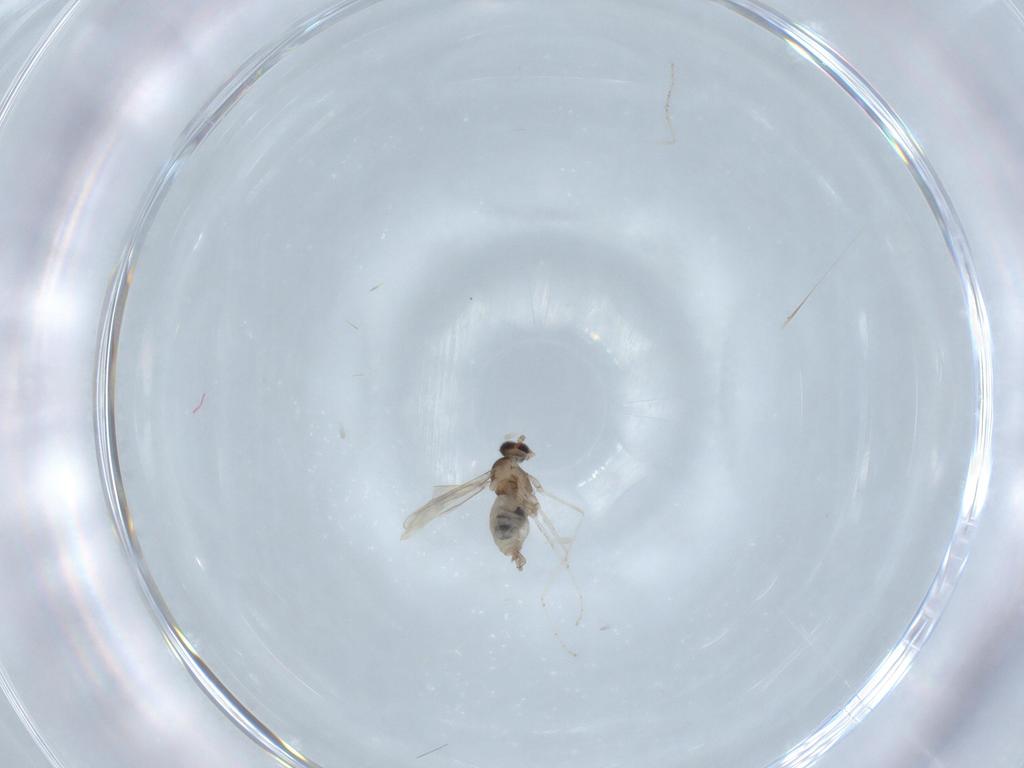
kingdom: Animalia
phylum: Arthropoda
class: Insecta
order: Diptera
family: Cecidomyiidae
